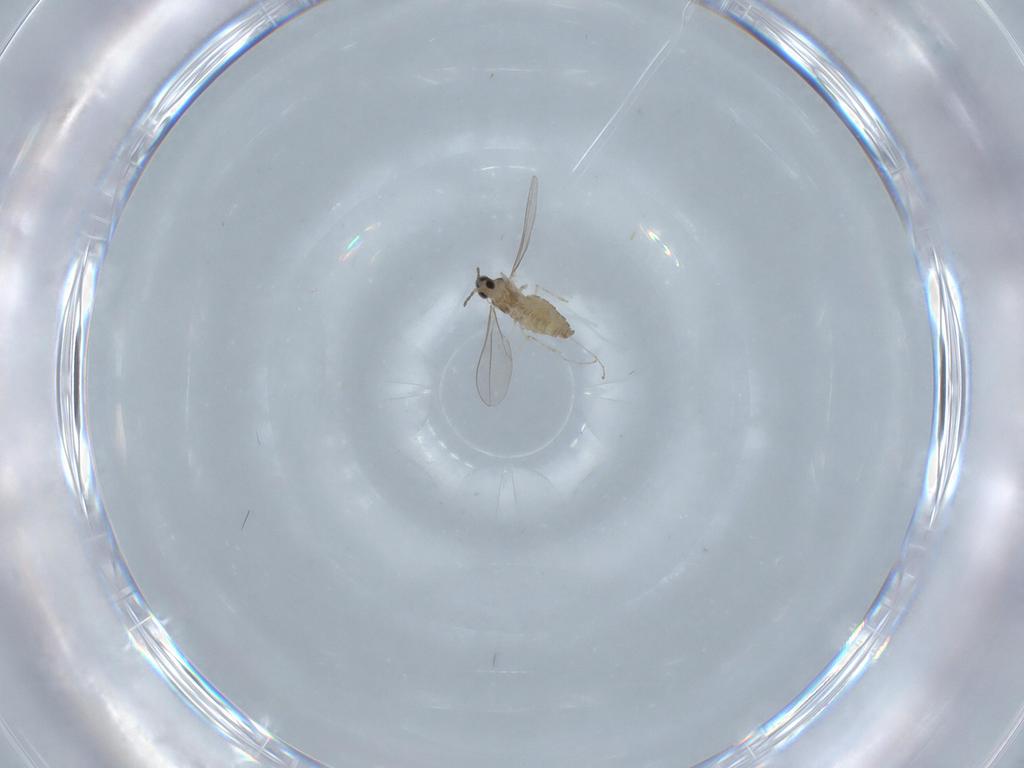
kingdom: Animalia
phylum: Arthropoda
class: Insecta
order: Diptera
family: Cecidomyiidae
